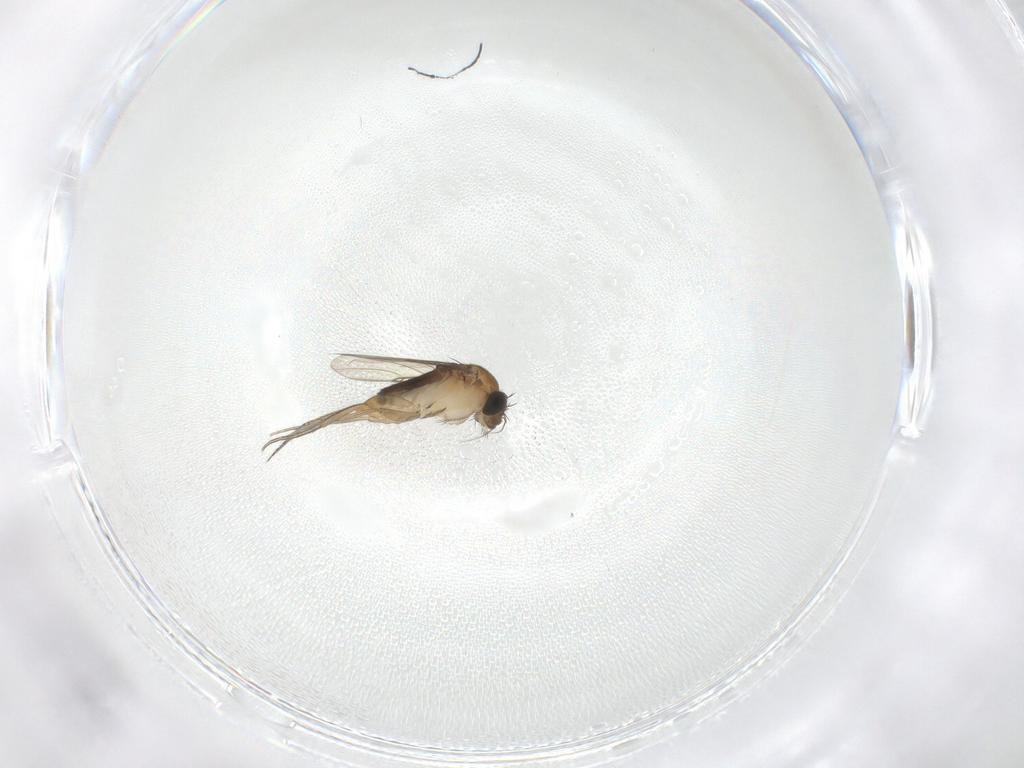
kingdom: Animalia
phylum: Arthropoda
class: Insecta
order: Diptera
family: Phoridae
